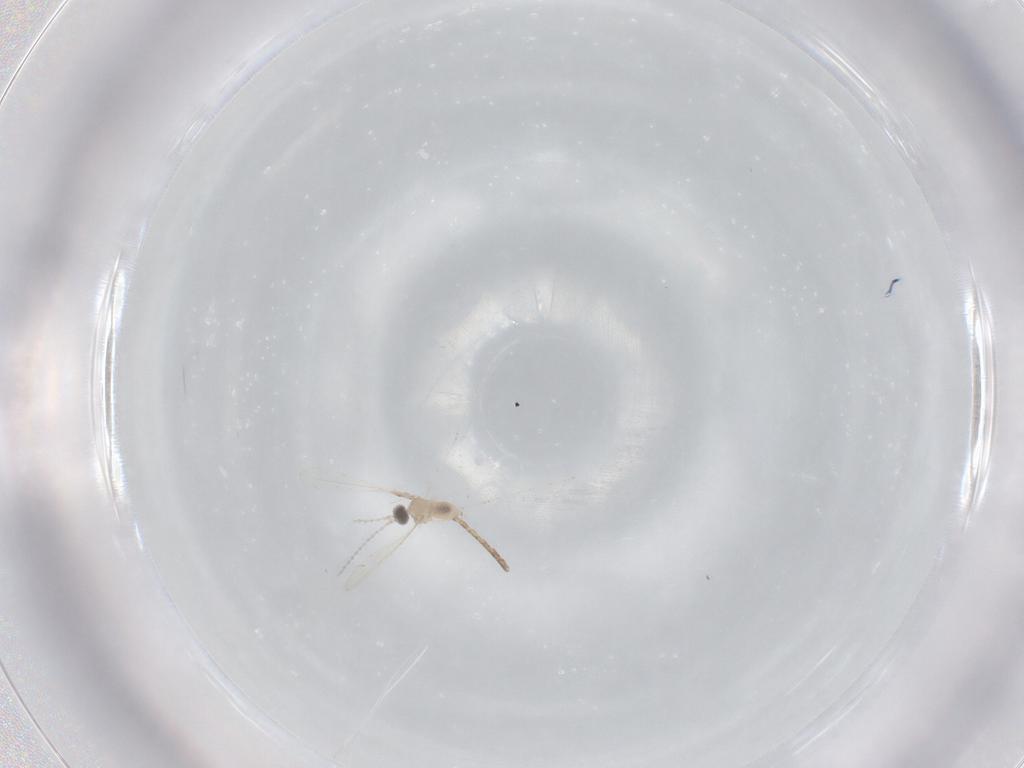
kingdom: Animalia
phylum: Arthropoda
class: Insecta
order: Diptera
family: Cecidomyiidae
